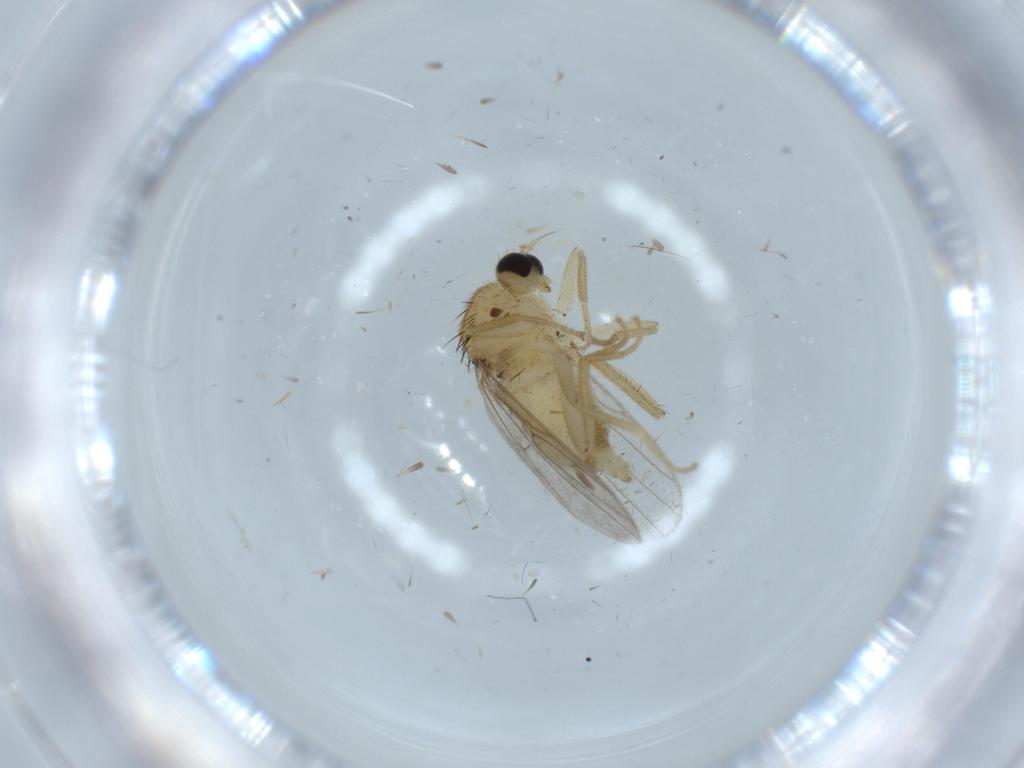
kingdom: Animalia
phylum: Arthropoda
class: Insecta
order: Diptera
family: Hybotidae
